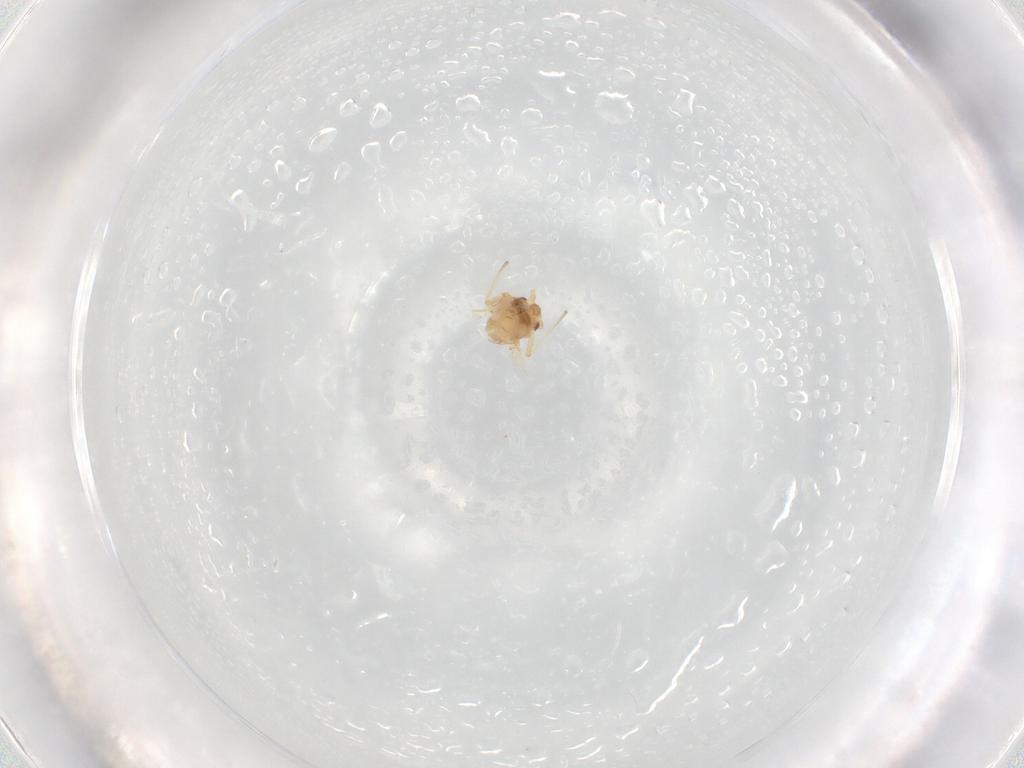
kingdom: Animalia
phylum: Arthropoda
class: Insecta
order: Hemiptera
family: Aphididae
